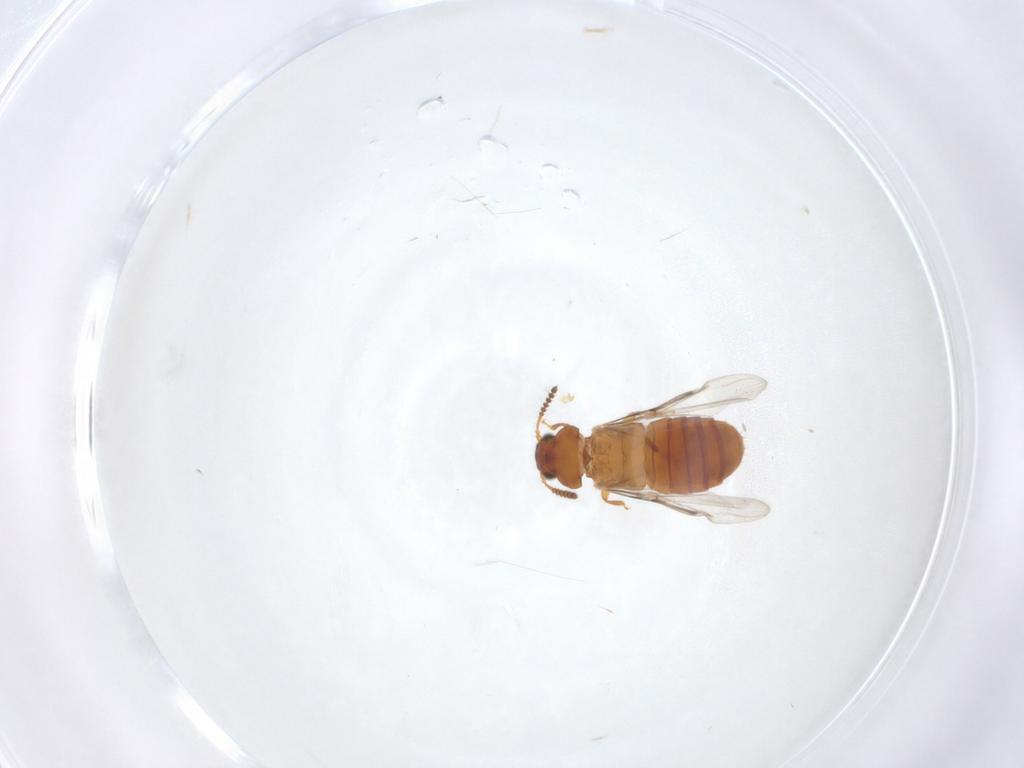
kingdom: Animalia
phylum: Arthropoda
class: Insecta
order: Coleoptera
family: Staphylinidae
